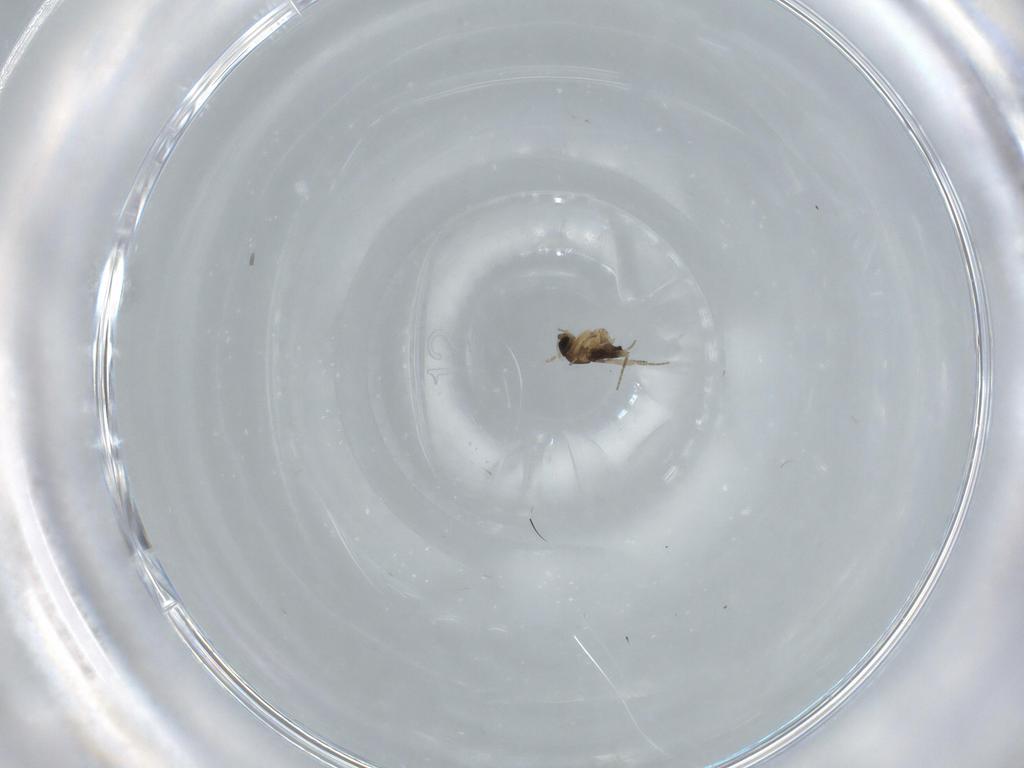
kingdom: Animalia
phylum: Arthropoda
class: Insecta
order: Diptera
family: Phoridae
